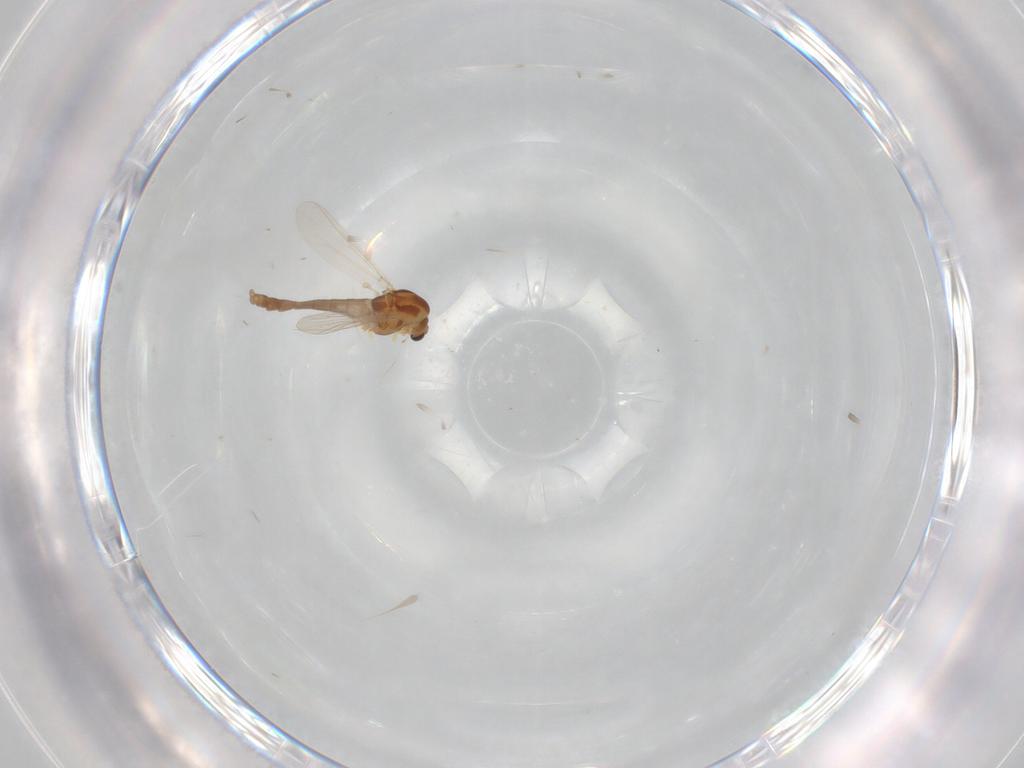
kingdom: Animalia
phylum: Arthropoda
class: Insecta
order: Diptera
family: Chironomidae
